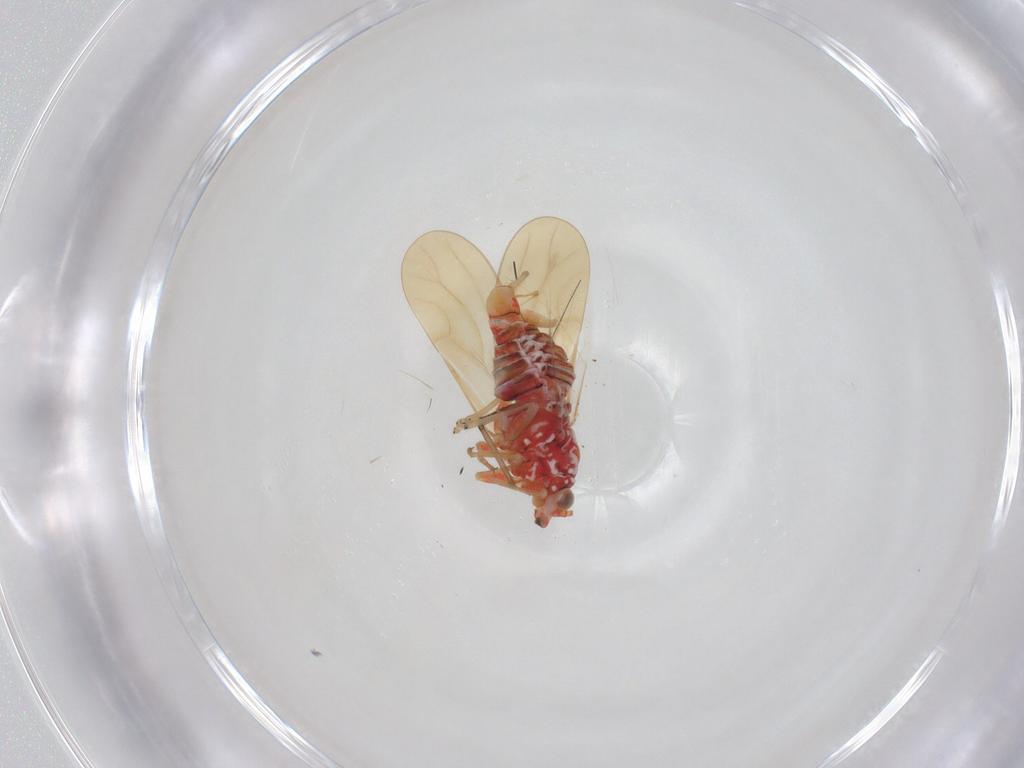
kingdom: Animalia
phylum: Arthropoda
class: Insecta
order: Hemiptera
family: Psyllidae
